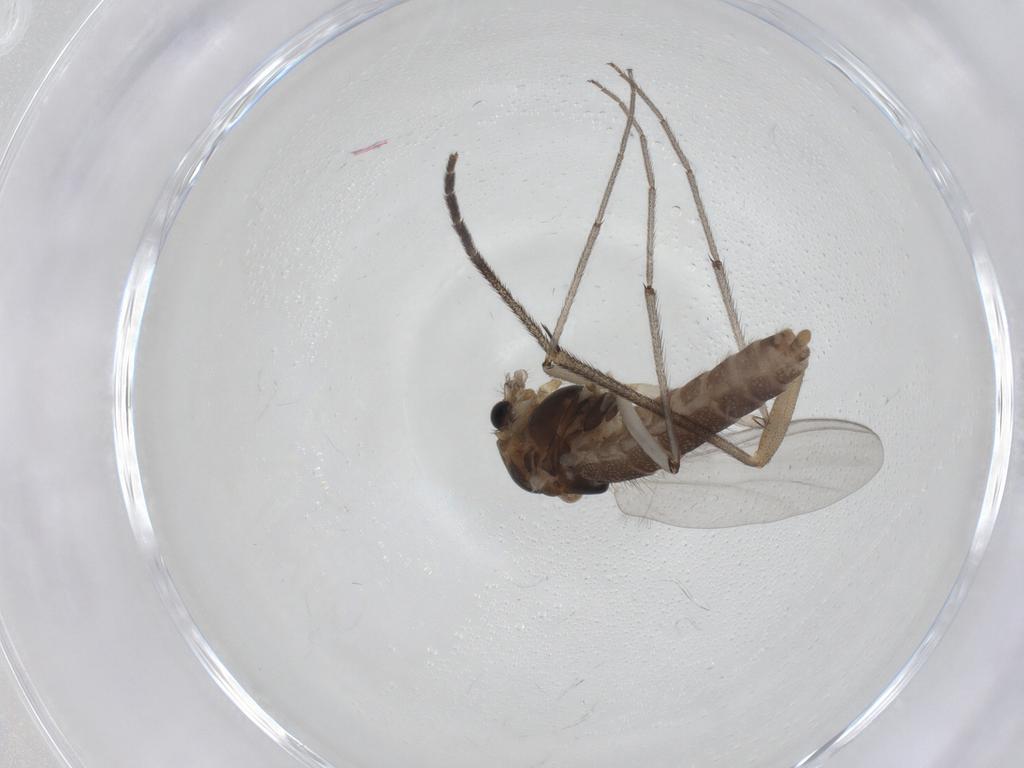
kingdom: Animalia
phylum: Arthropoda
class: Insecta
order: Diptera
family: Chironomidae
